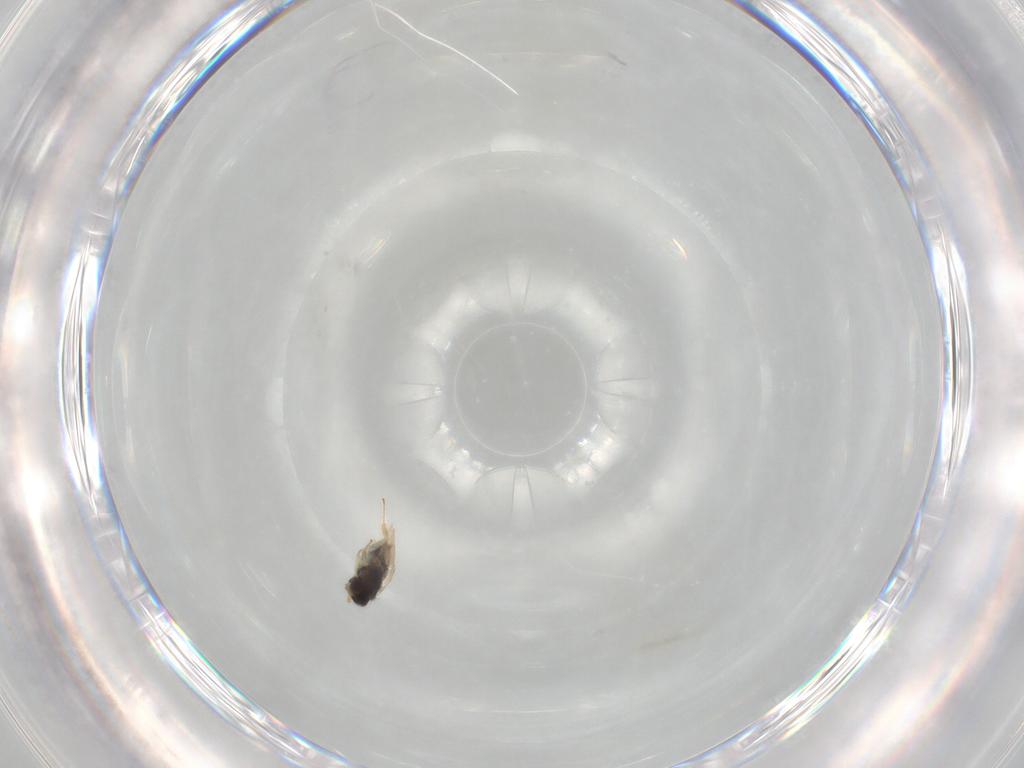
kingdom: Animalia
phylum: Arthropoda
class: Insecta
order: Hymenoptera
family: Aphelinidae
